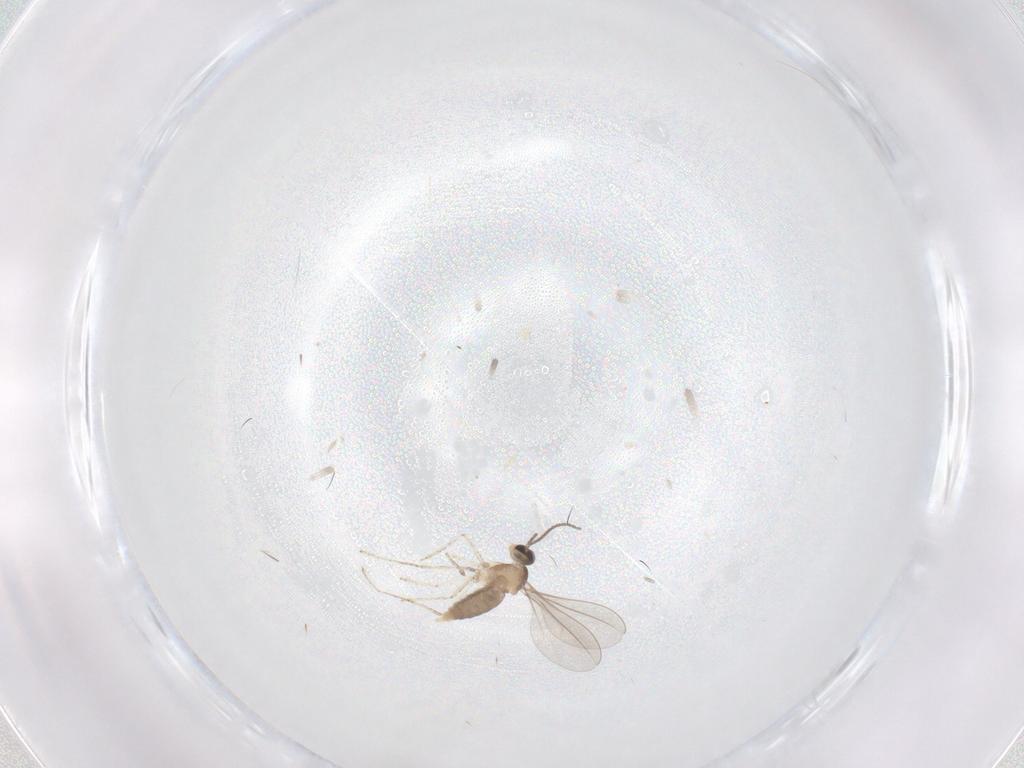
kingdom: Animalia
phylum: Arthropoda
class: Insecta
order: Diptera
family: Cecidomyiidae
